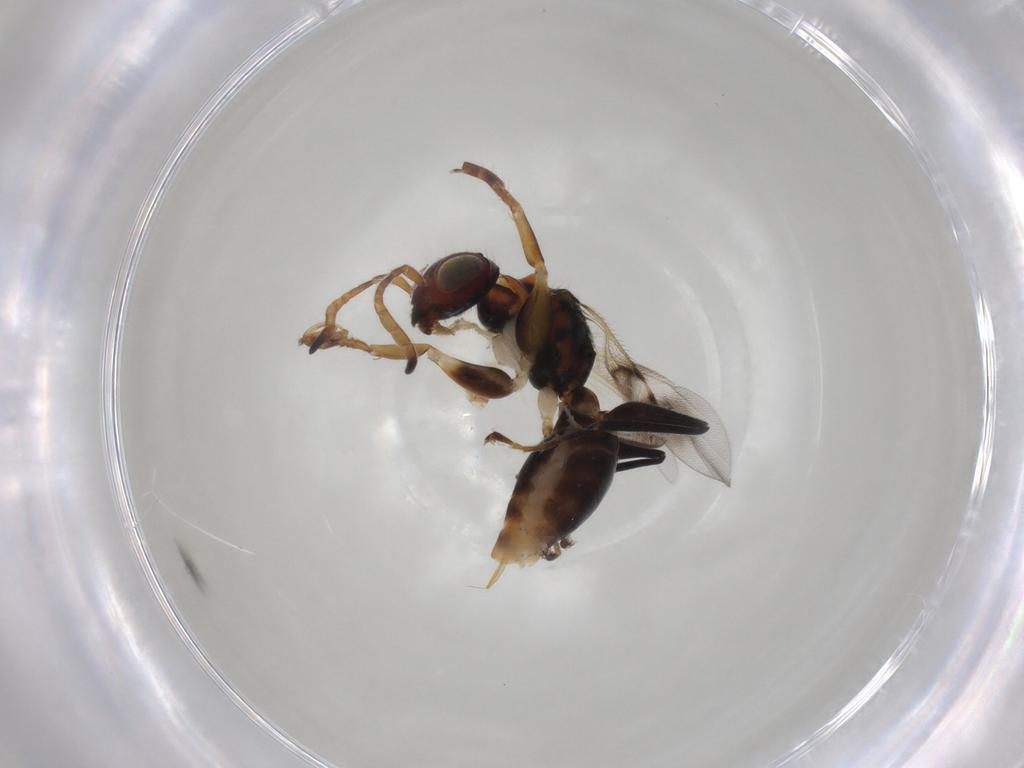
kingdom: Animalia
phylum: Arthropoda
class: Insecta
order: Hymenoptera
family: Dryinidae
